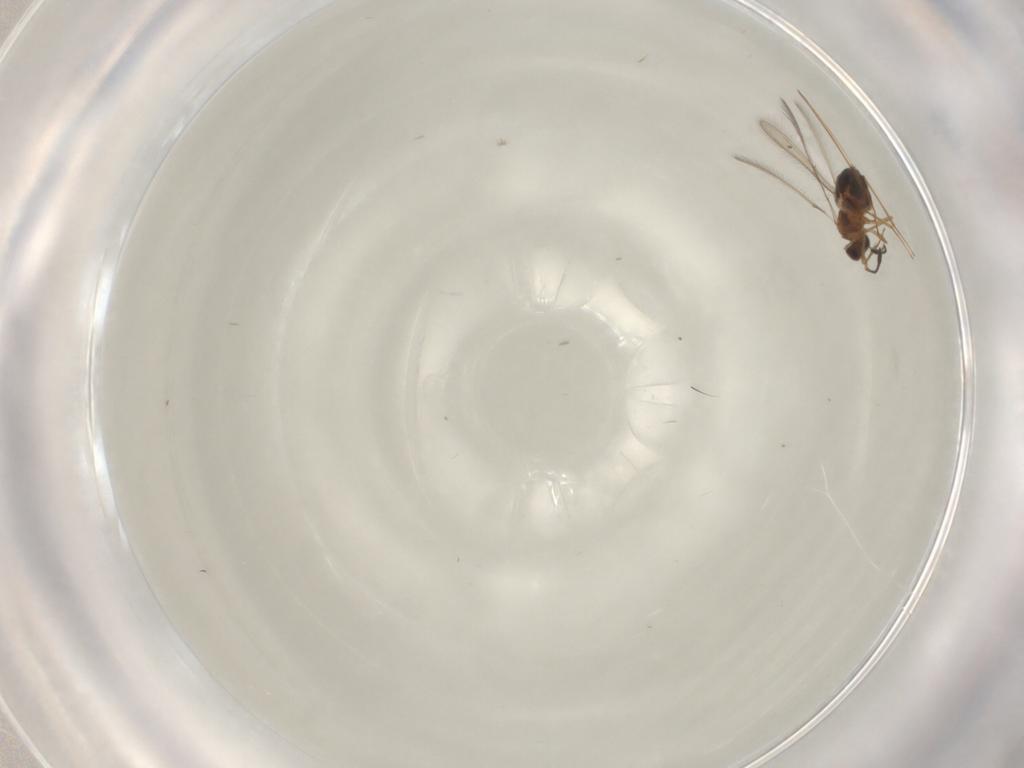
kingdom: Animalia
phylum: Arthropoda
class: Insecta
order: Hymenoptera
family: Mymaridae
